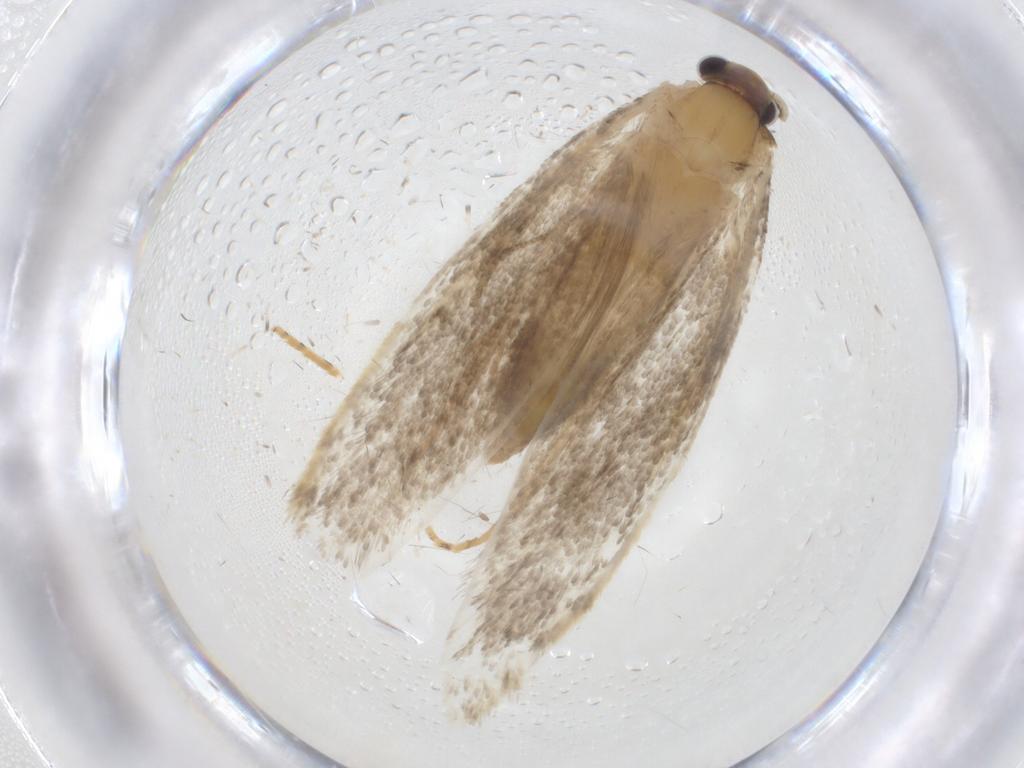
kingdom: Animalia
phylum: Arthropoda
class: Insecta
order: Lepidoptera
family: Tineidae
